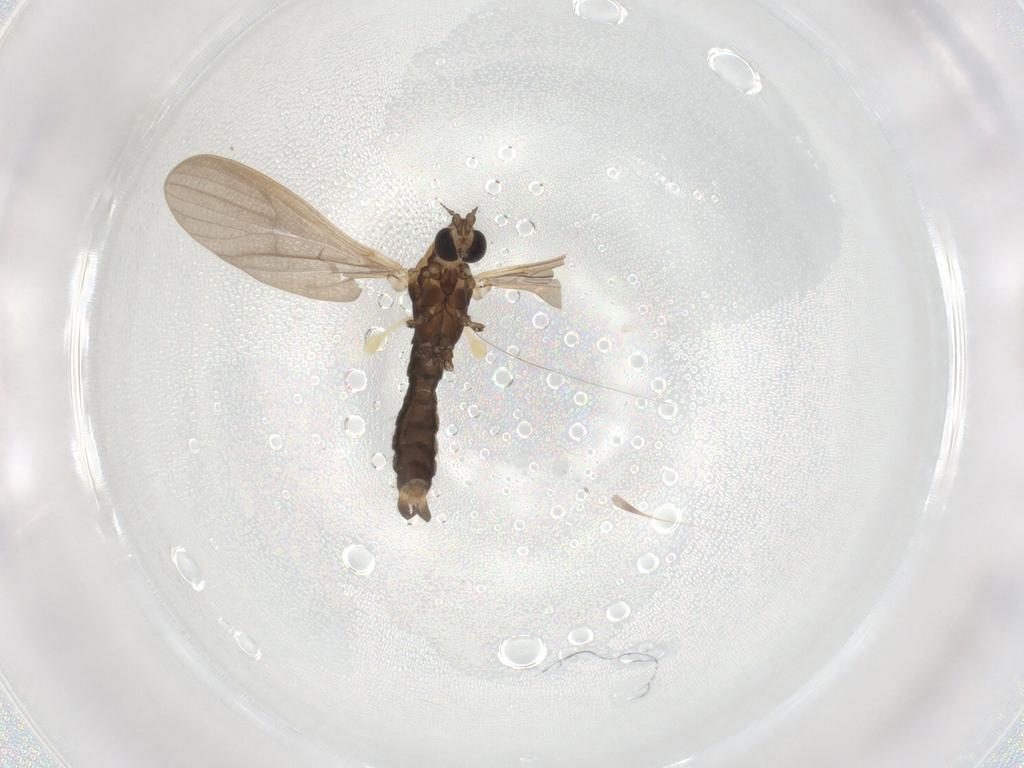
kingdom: Animalia
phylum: Arthropoda
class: Insecta
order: Diptera
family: Limoniidae
